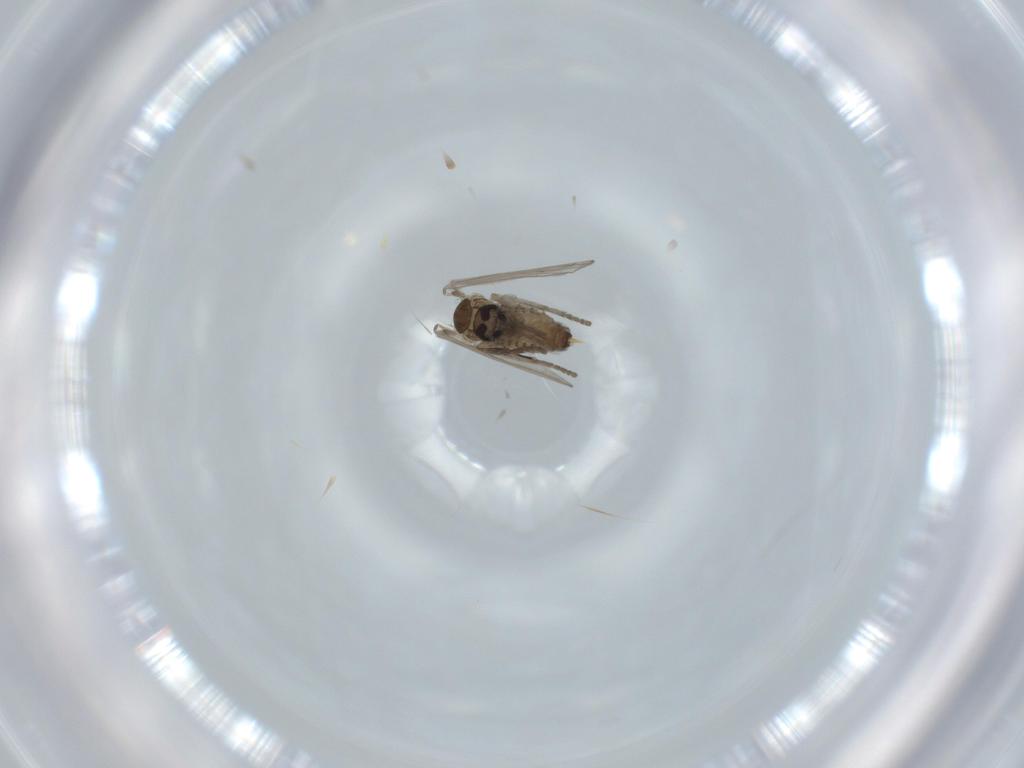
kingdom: Animalia
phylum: Arthropoda
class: Insecta
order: Diptera
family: Psychodidae
